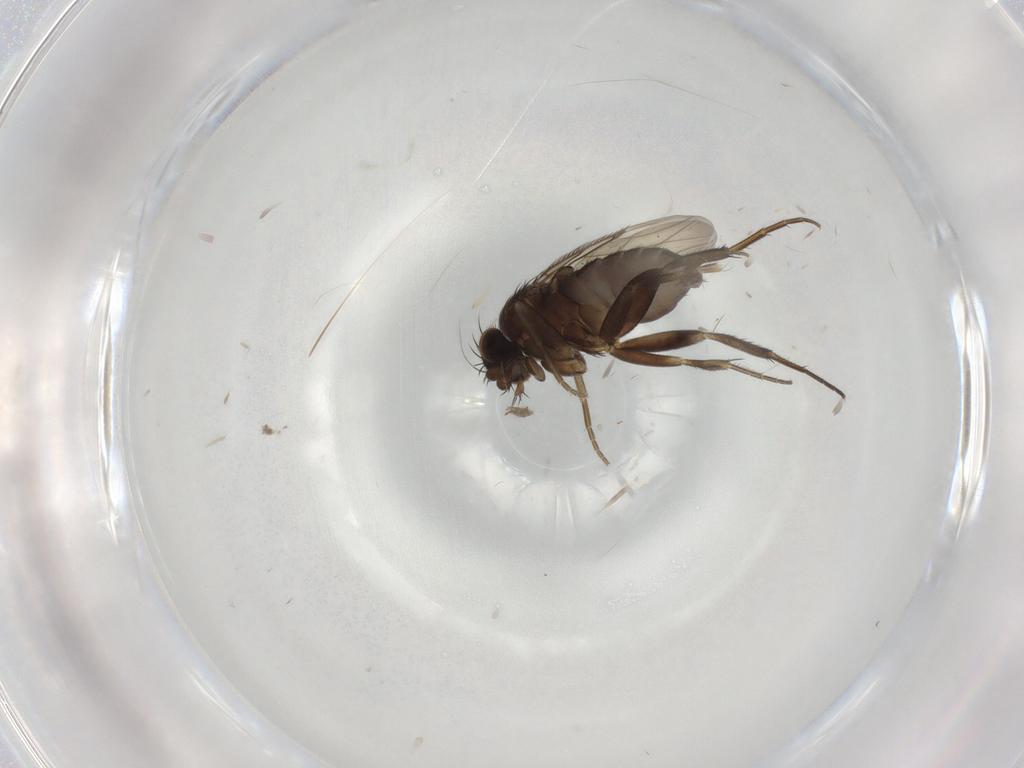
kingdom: Animalia
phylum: Arthropoda
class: Insecta
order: Diptera
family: Phoridae
